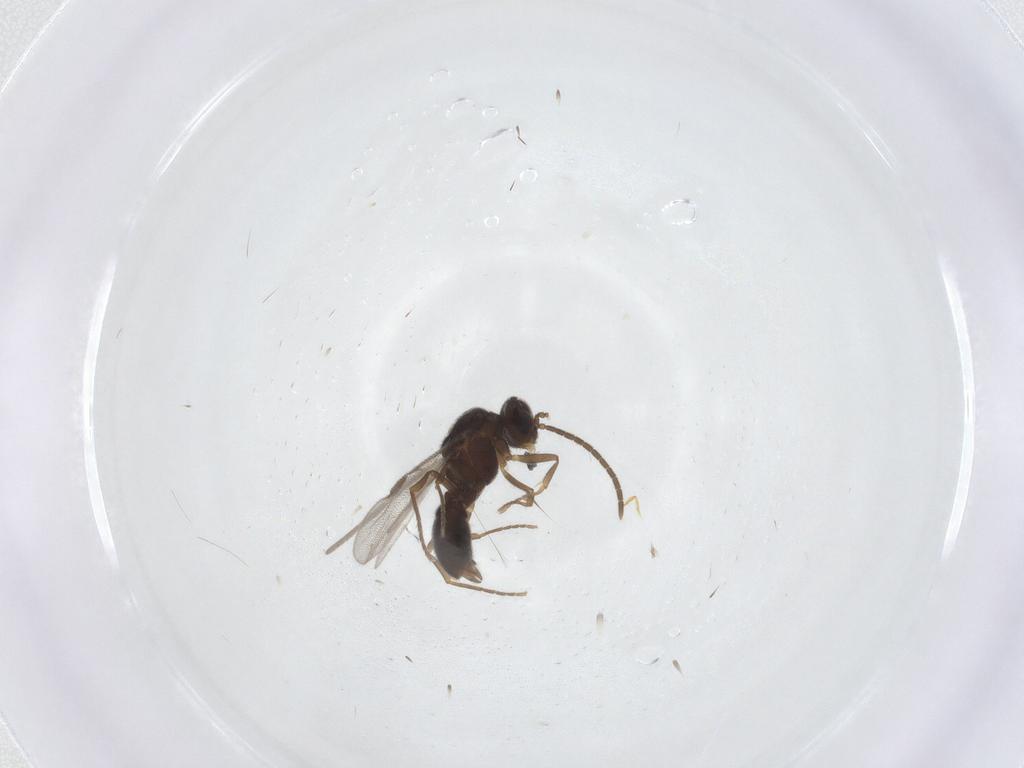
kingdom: Animalia
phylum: Arthropoda
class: Insecta
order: Hymenoptera
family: Formicidae
